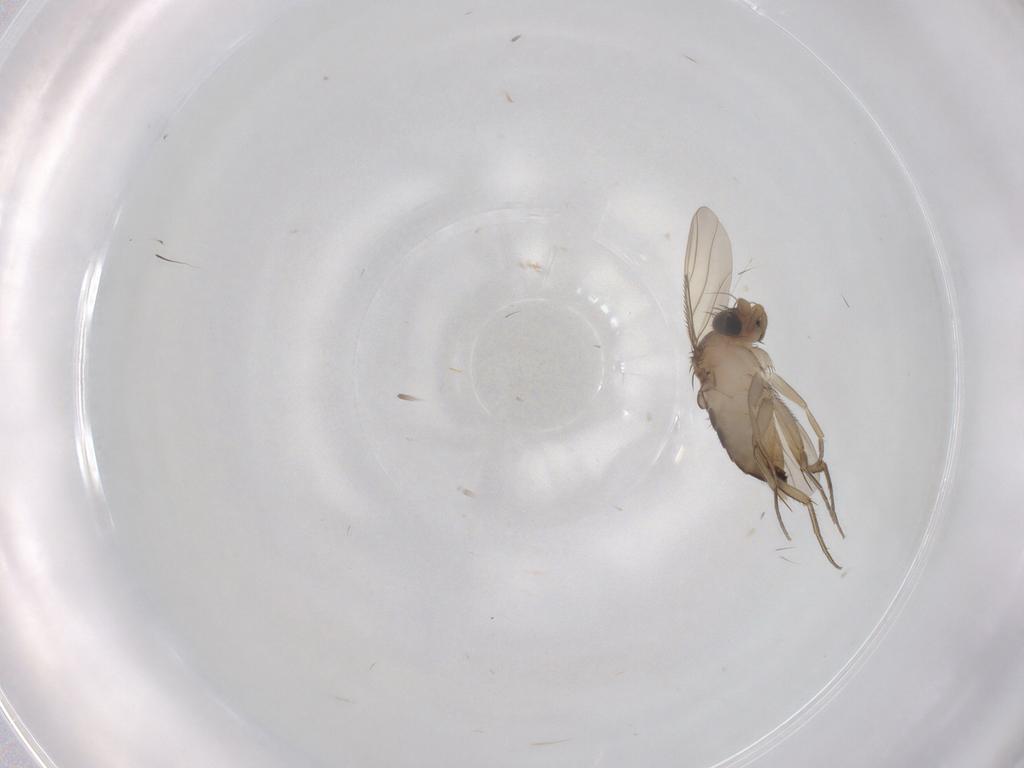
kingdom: Animalia
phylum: Arthropoda
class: Insecta
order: Diptera
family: Phoridae
